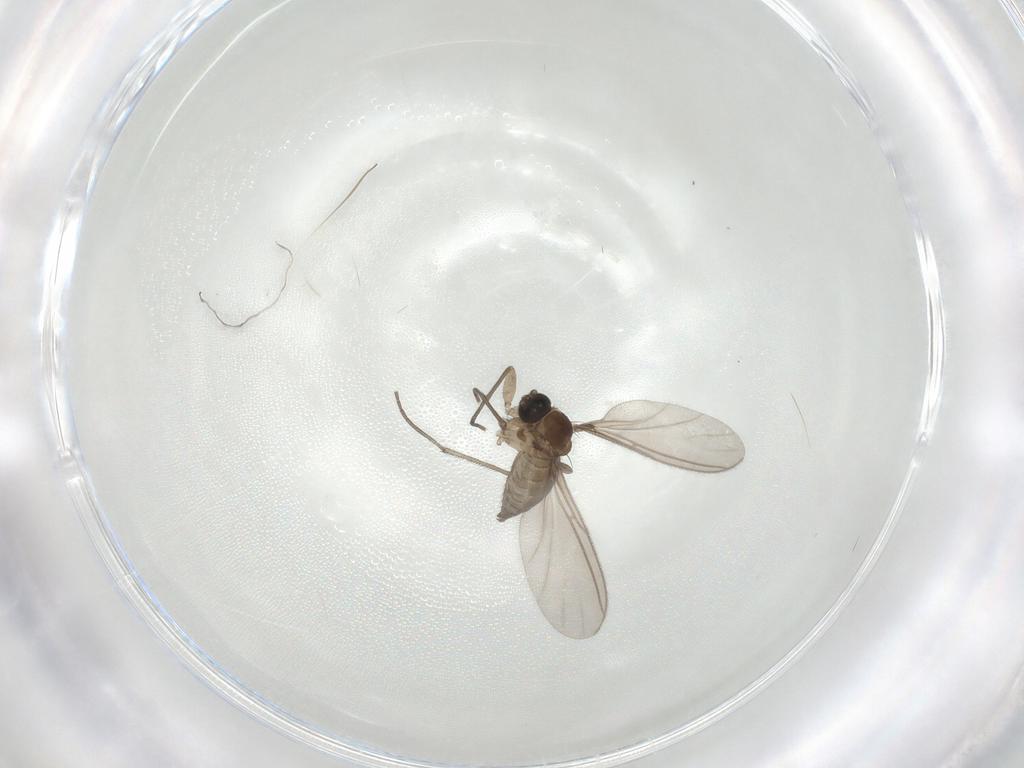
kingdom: Animalia
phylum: Arthropoda
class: Insecta
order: Diptera
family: Sciaridae
